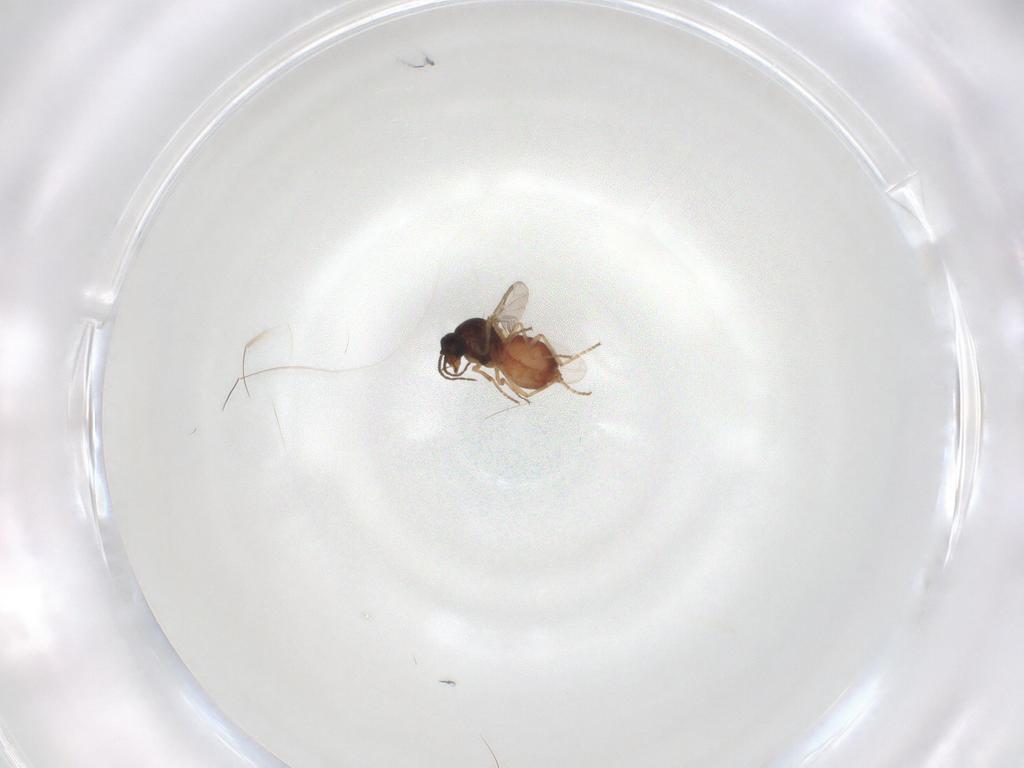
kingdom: Animalia
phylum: Arthropoda
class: Insecta
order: Diptera
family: Ceratopogonidae
